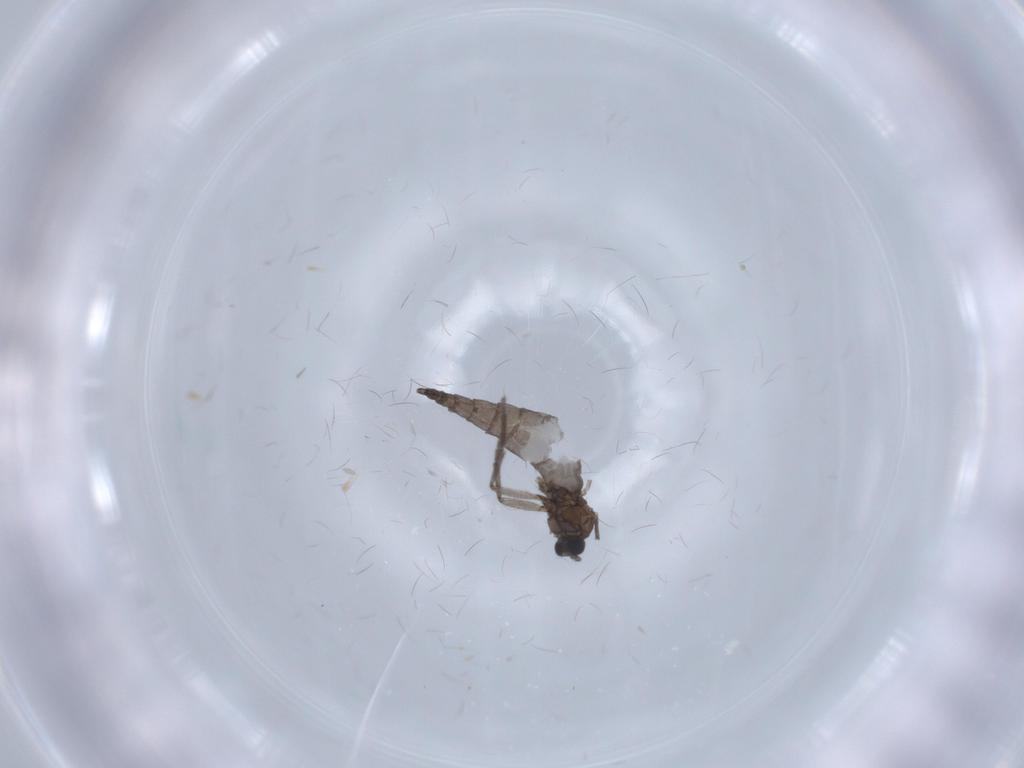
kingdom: Animalia
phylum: Arthropoda
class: Insecta
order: Diptera
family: Sciaridae
